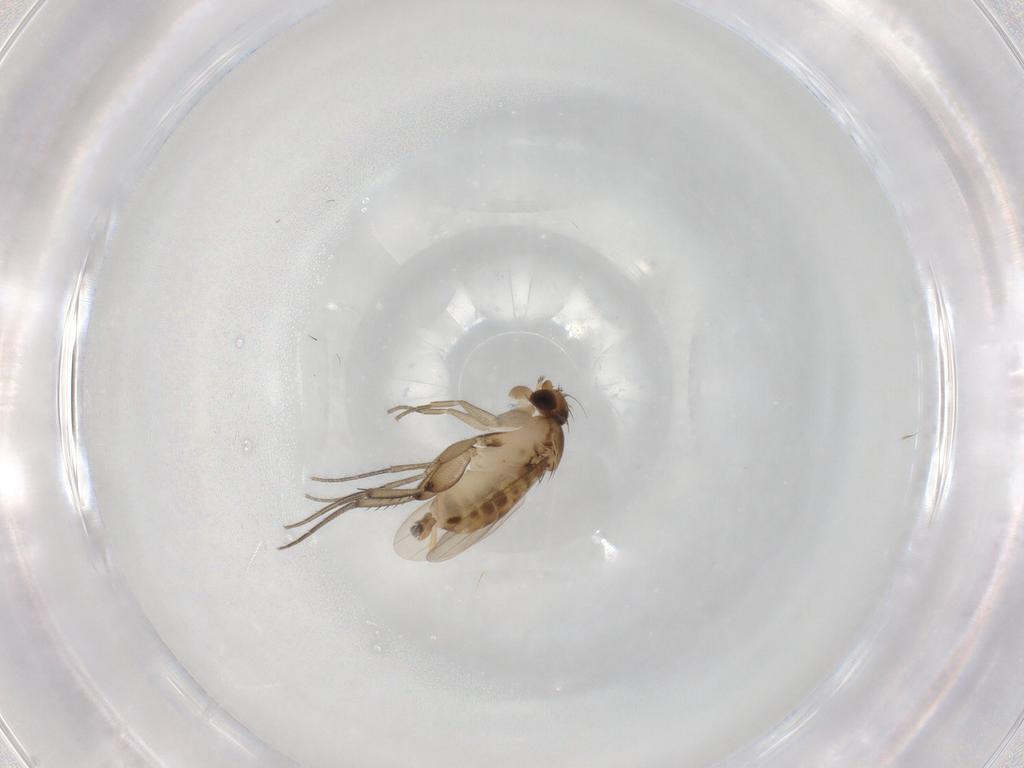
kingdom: Animalia
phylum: Arthropoda
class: Insecta
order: Diptera
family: Phoridae
